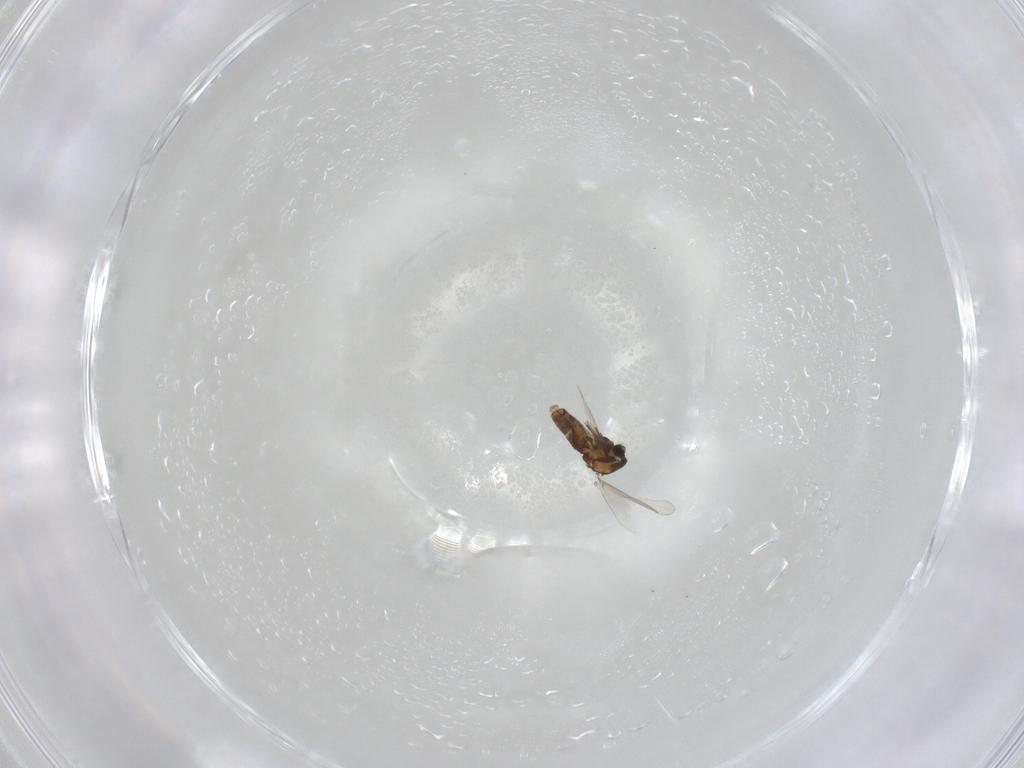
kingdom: Animalia
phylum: Arthropoda
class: Insecta
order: Diptera
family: Chironomidae
